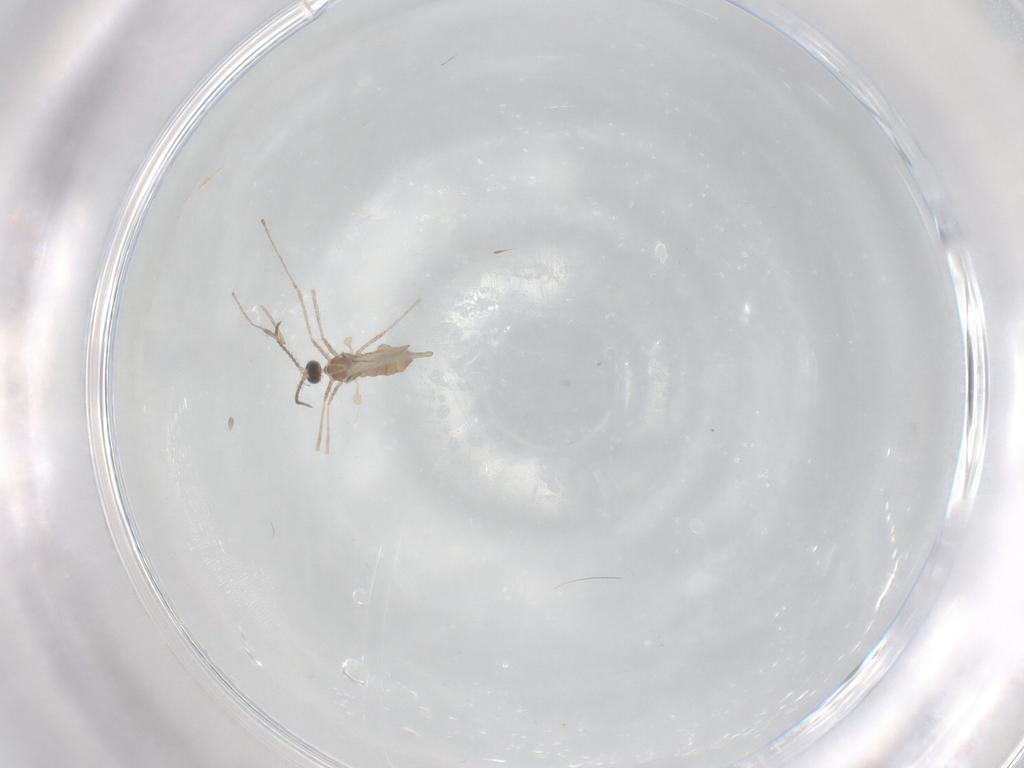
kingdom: Animalia
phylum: Arthropoda
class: Insecta
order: Diptera
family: Cecidomyiidae
